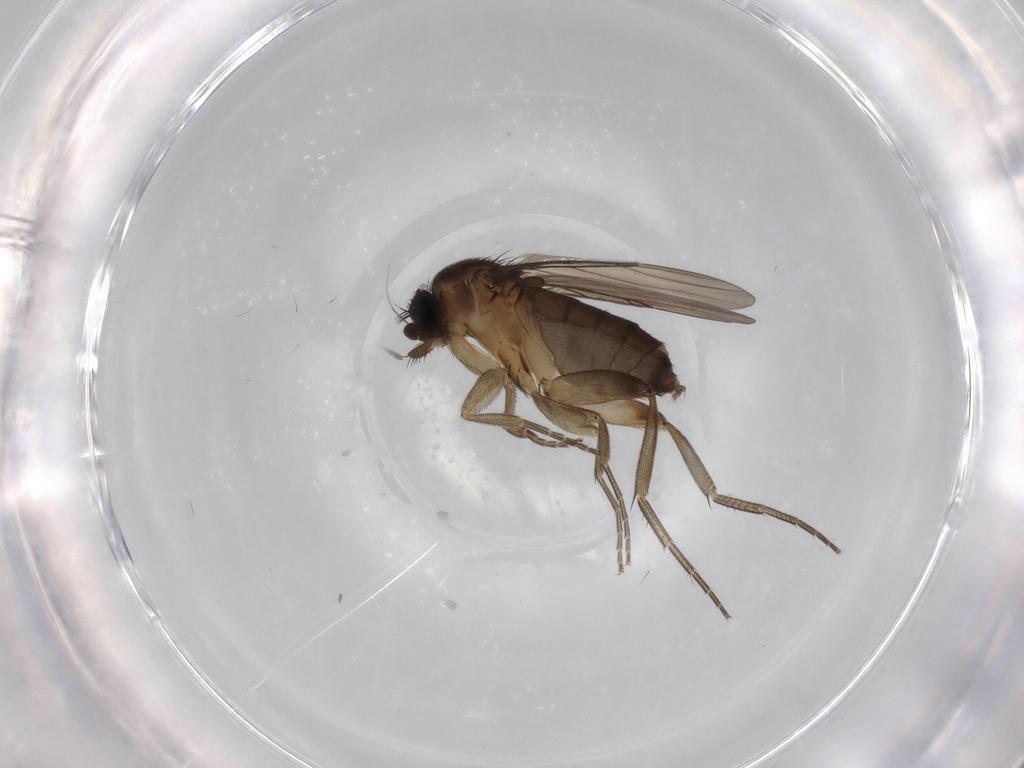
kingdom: Animalia
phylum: Arthropoda
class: Insecta
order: Diptera
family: Phoridae
